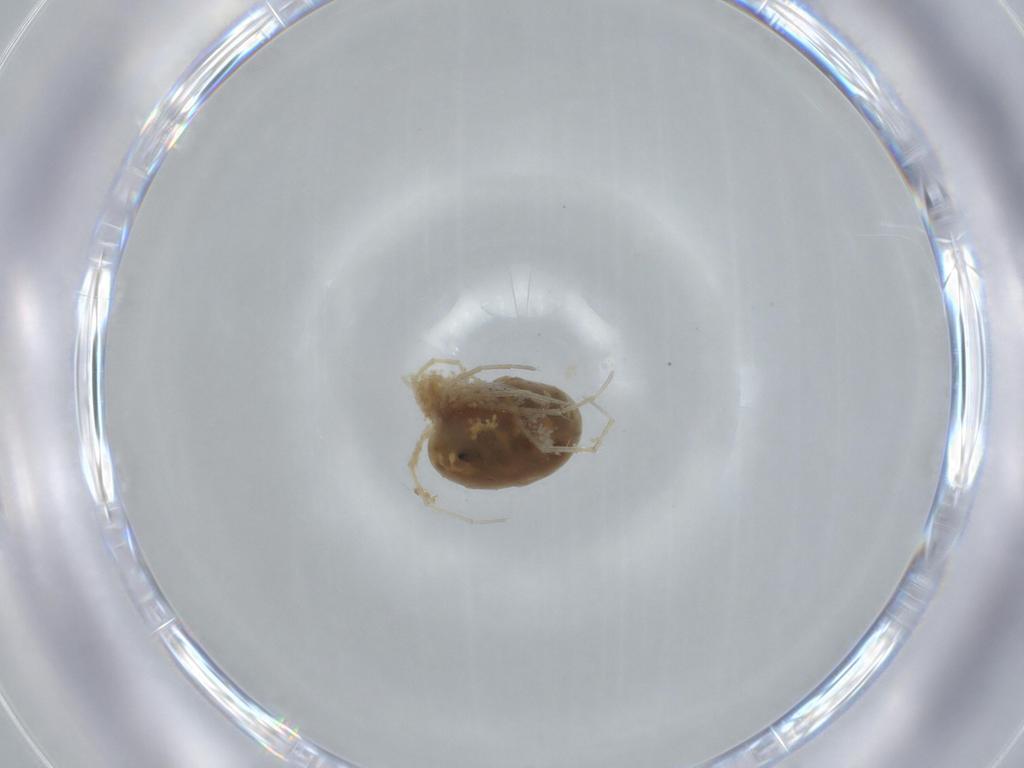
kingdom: Animalia
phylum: Arthropoda
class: Arachnida
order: Trombidiformes
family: Hygrobatidae
